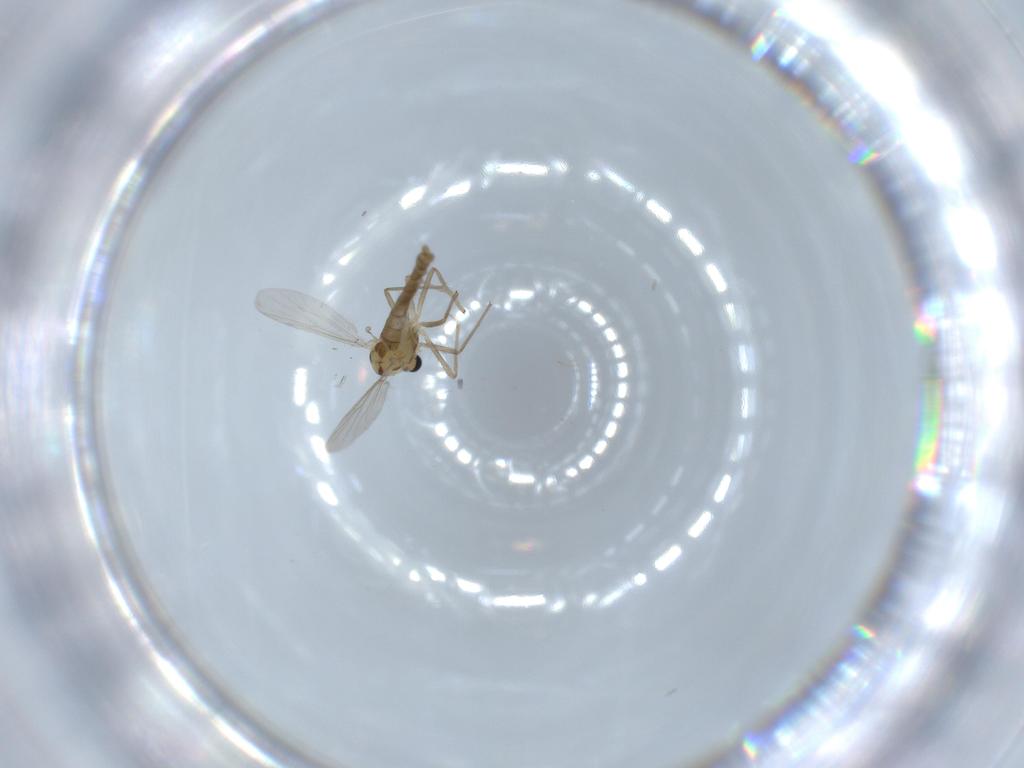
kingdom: Animalia
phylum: Arthropoda
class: Insecta
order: Diptera
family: Chironomidae
